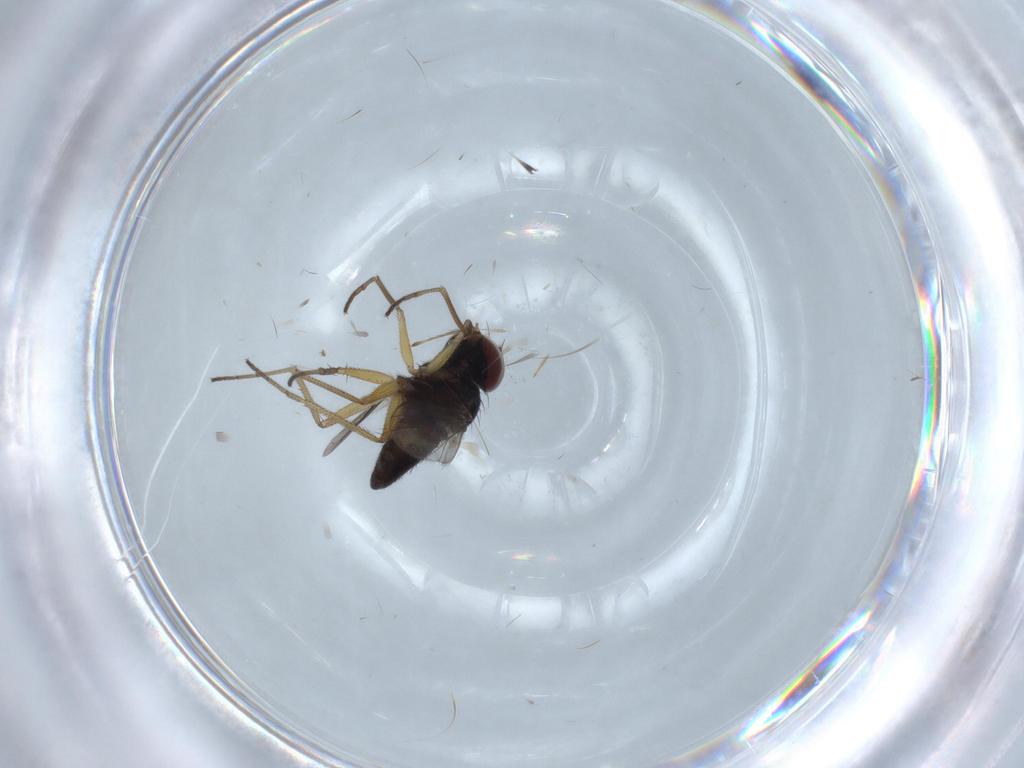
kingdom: Animalia
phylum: Arthropoda
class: Insecta
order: Diptera
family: Dolichopodidae
